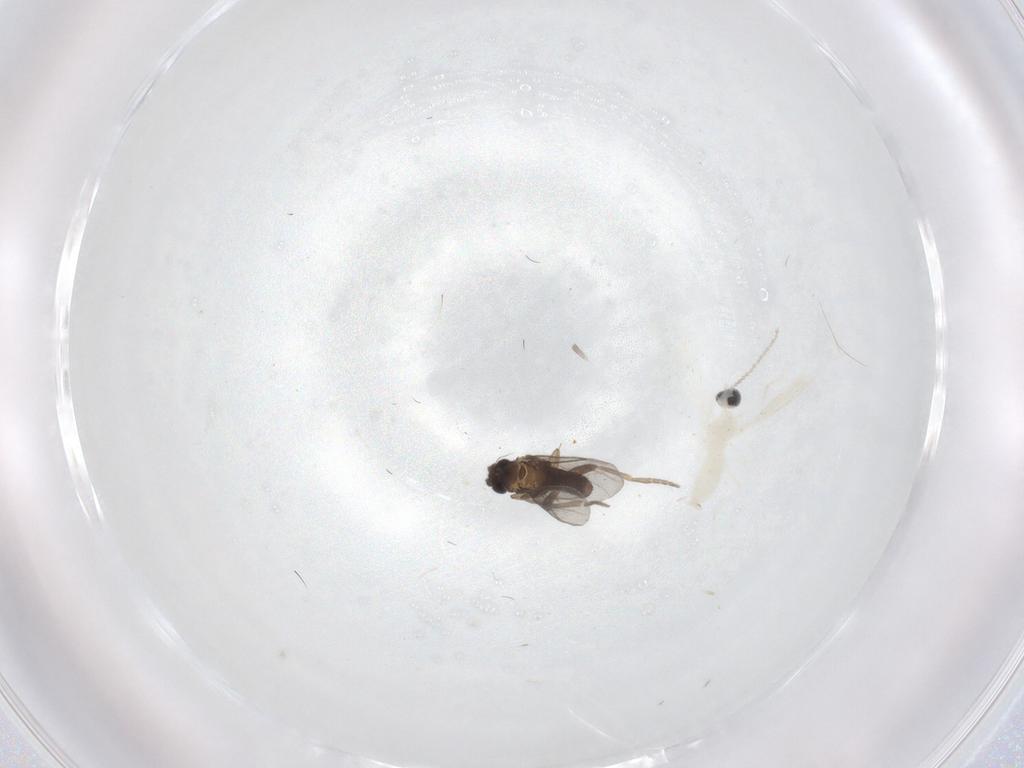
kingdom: Animalia
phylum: Arthropoda
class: Insecta
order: Diptera
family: Cecidomyiidae
